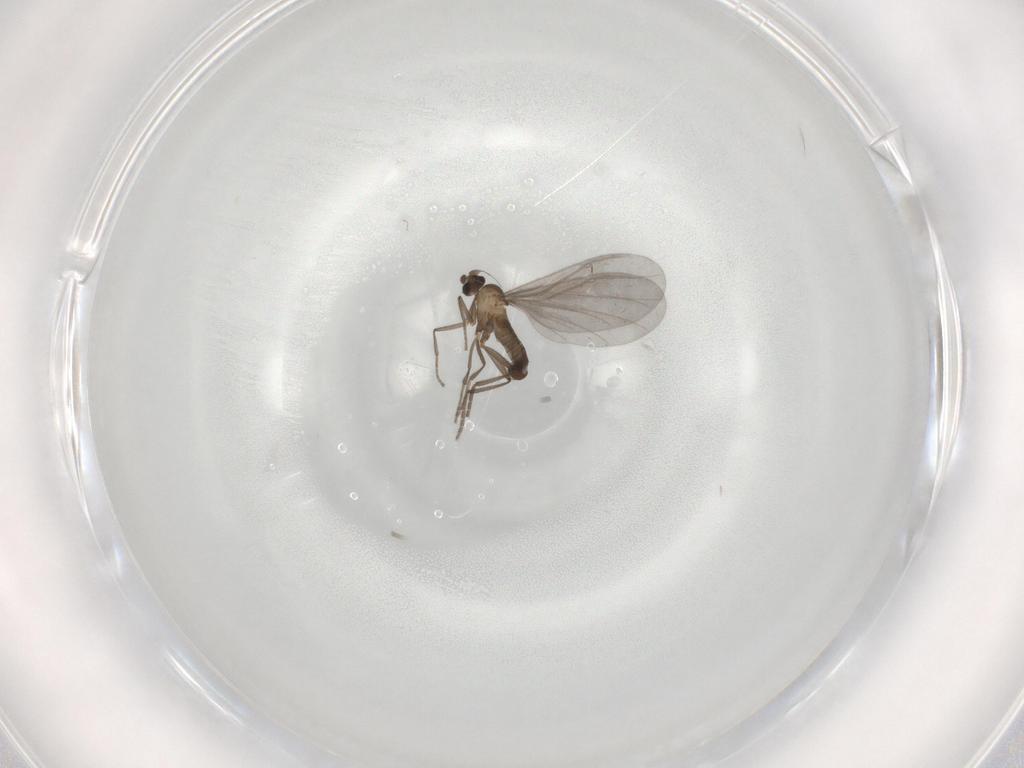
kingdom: Animalia
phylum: Arthropoda
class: Insecta
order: Diptera
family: Phoridae
